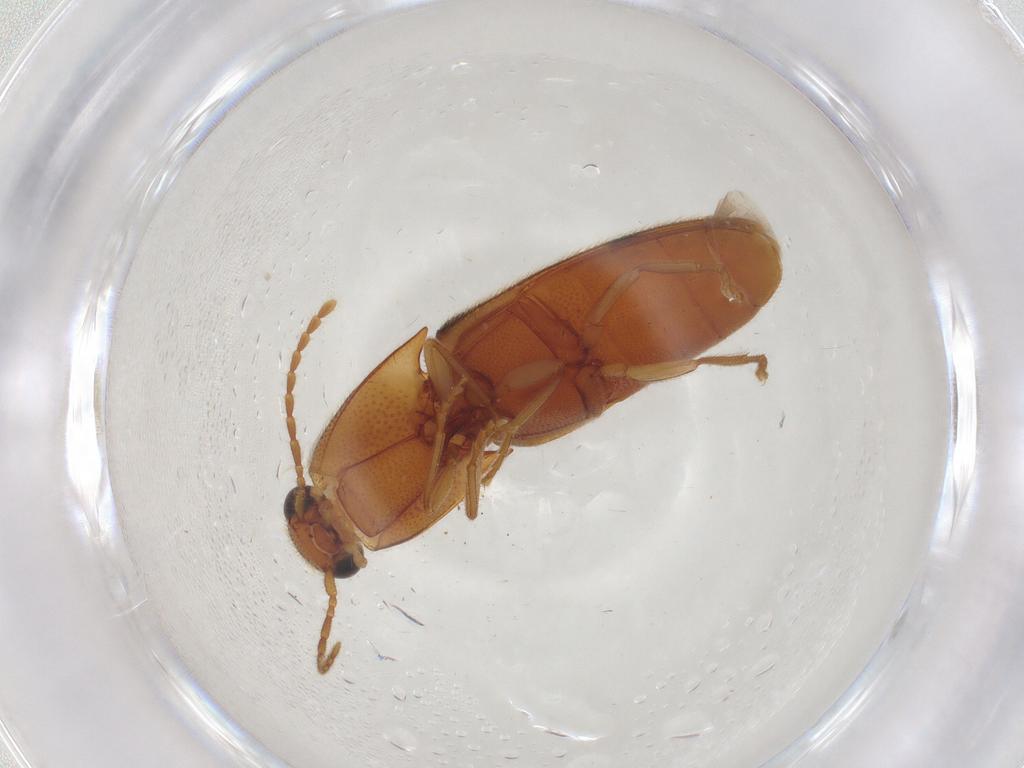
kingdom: Animalia
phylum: Arthropoda
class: Insecta
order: Coleoptera
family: Elateridae
